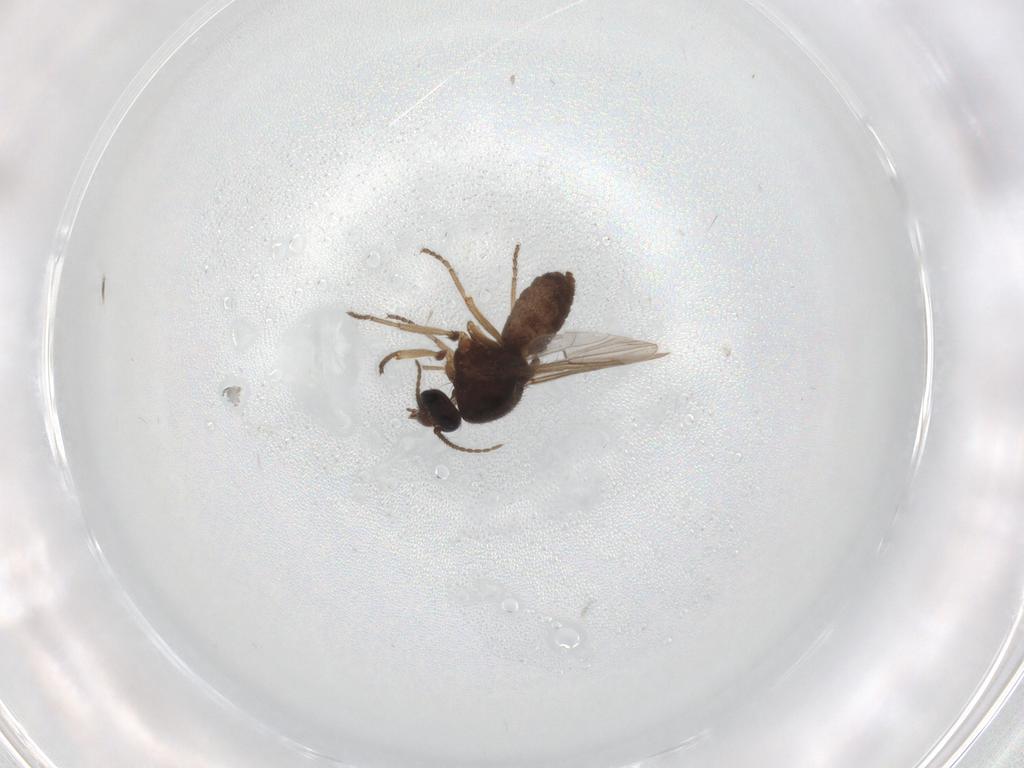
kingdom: Animalia
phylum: Arthropoda
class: Insecta
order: Diptera
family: Ceratopogonidae
